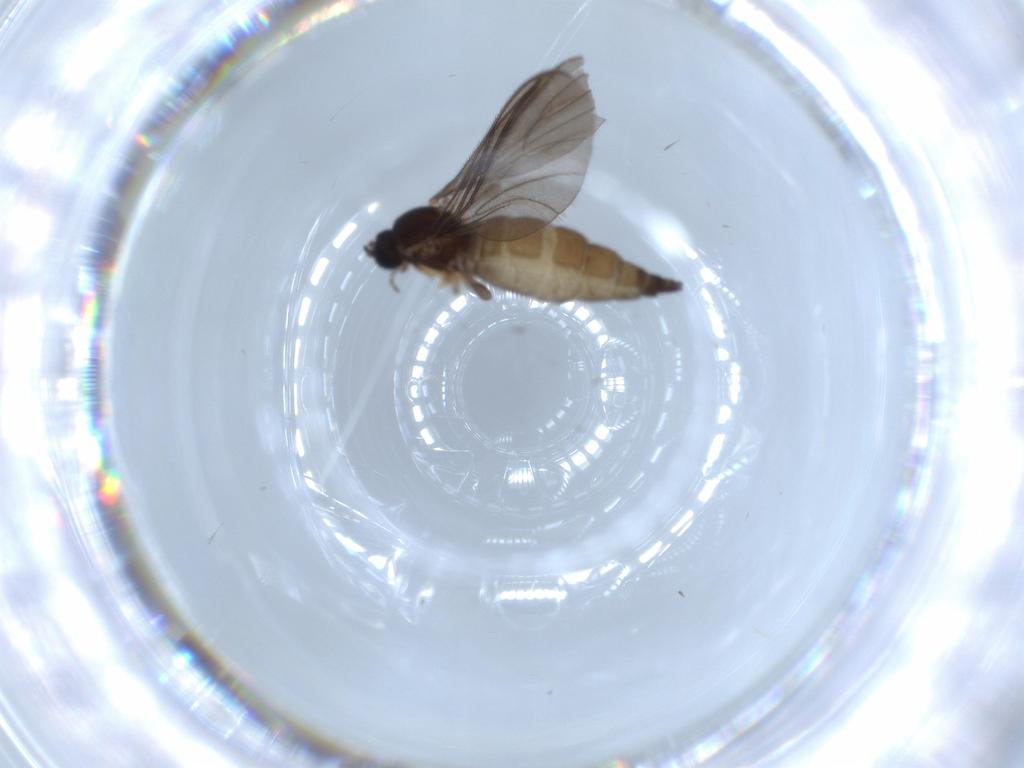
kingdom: Animalia
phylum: Arthropoda
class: Insecta
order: Diptera
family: Sciaridae
